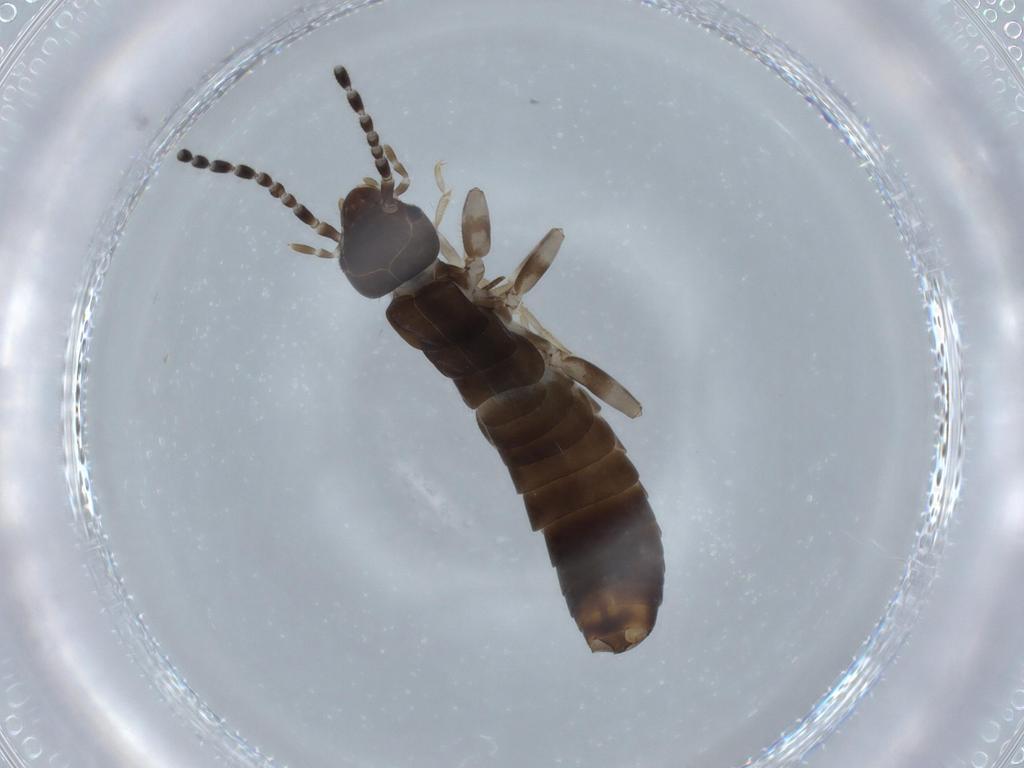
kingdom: Animalia
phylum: Arthropoda
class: Insecta
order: Dermaptera
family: Anisolabididae
